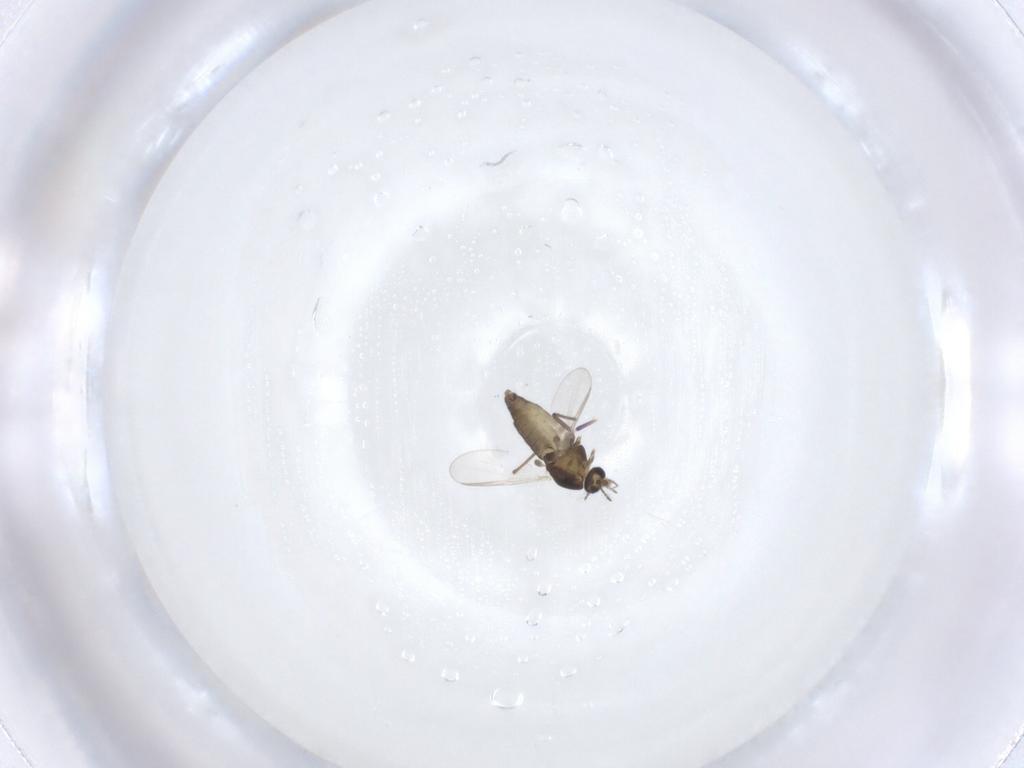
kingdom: Animalia
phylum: Arthropoda
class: Insecta
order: Diptera
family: Chironomidae
